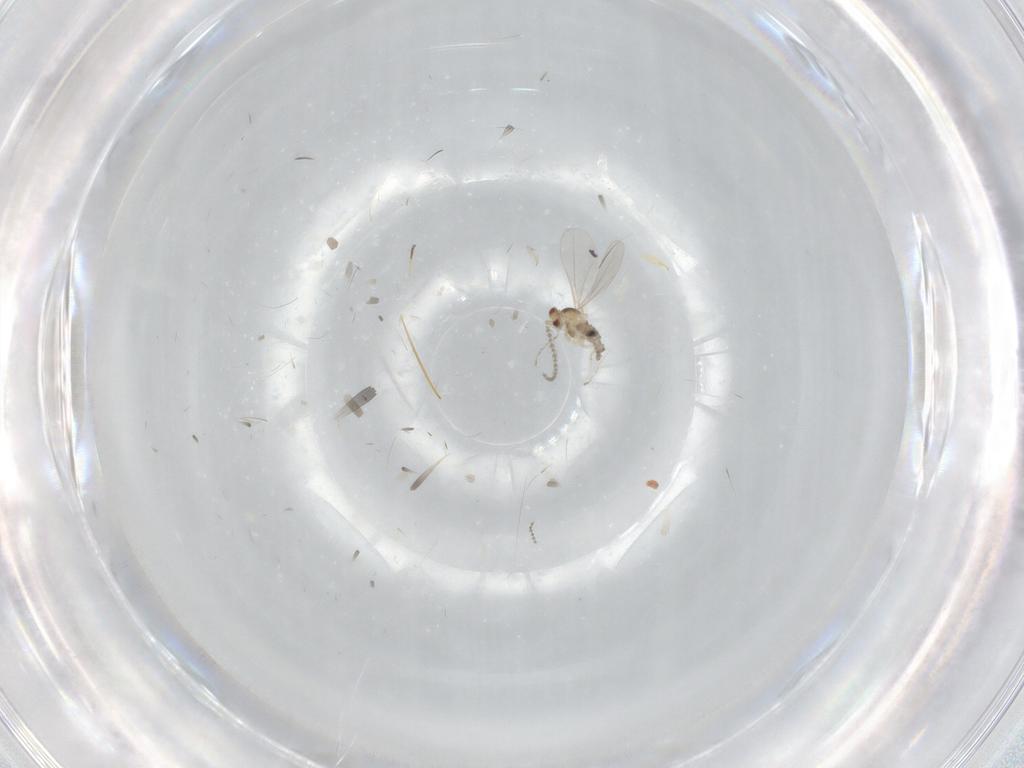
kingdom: Animalia
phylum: Arthropoda
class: Insecta
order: Diptera
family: Cecidomyiidae
